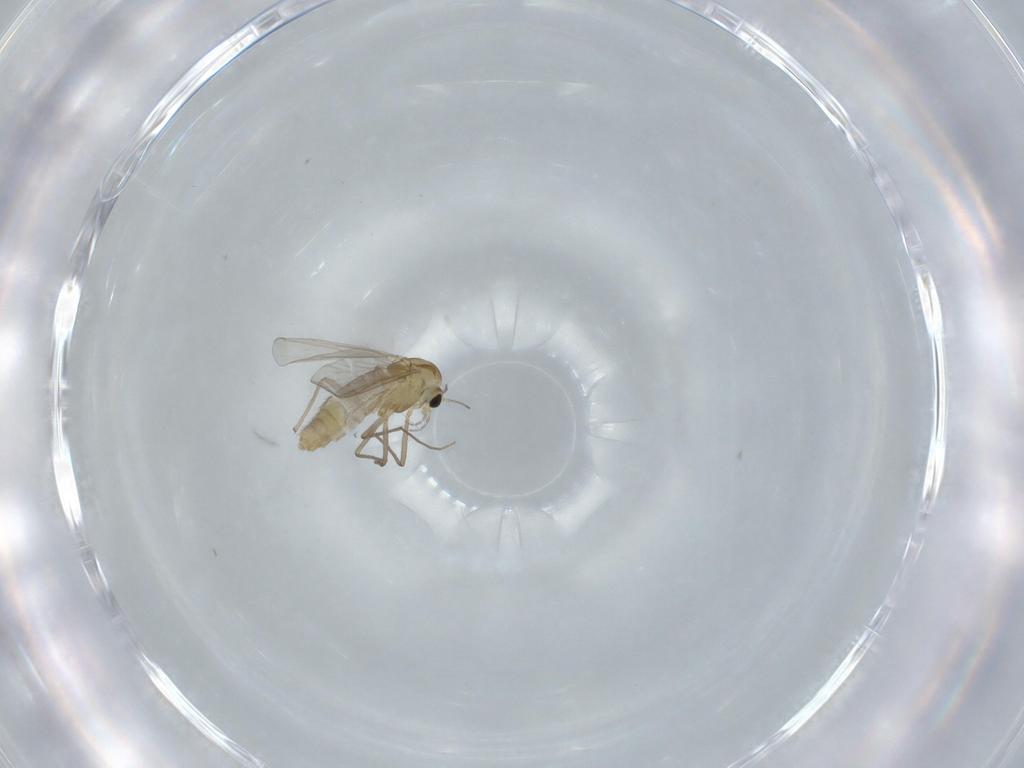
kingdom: Animalia
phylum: Arthropoda
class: Insecta
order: Diptera
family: Chironomidae
